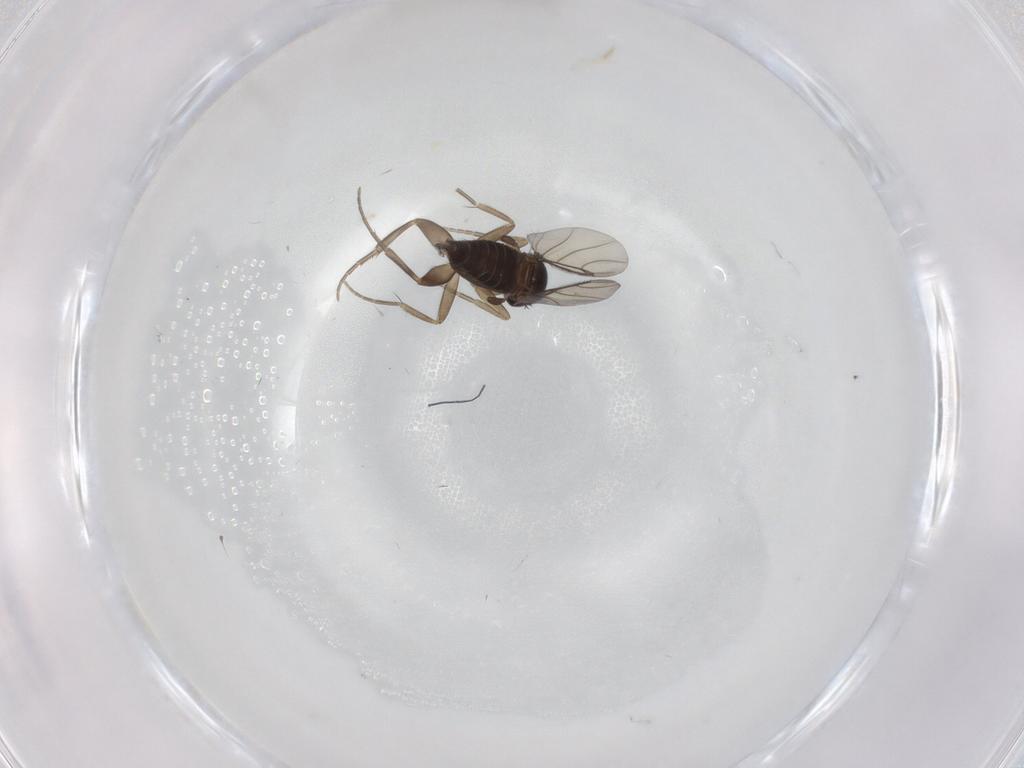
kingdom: Animalia
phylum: Arthropoda
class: Insecta
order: Diptera
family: Phoridae
